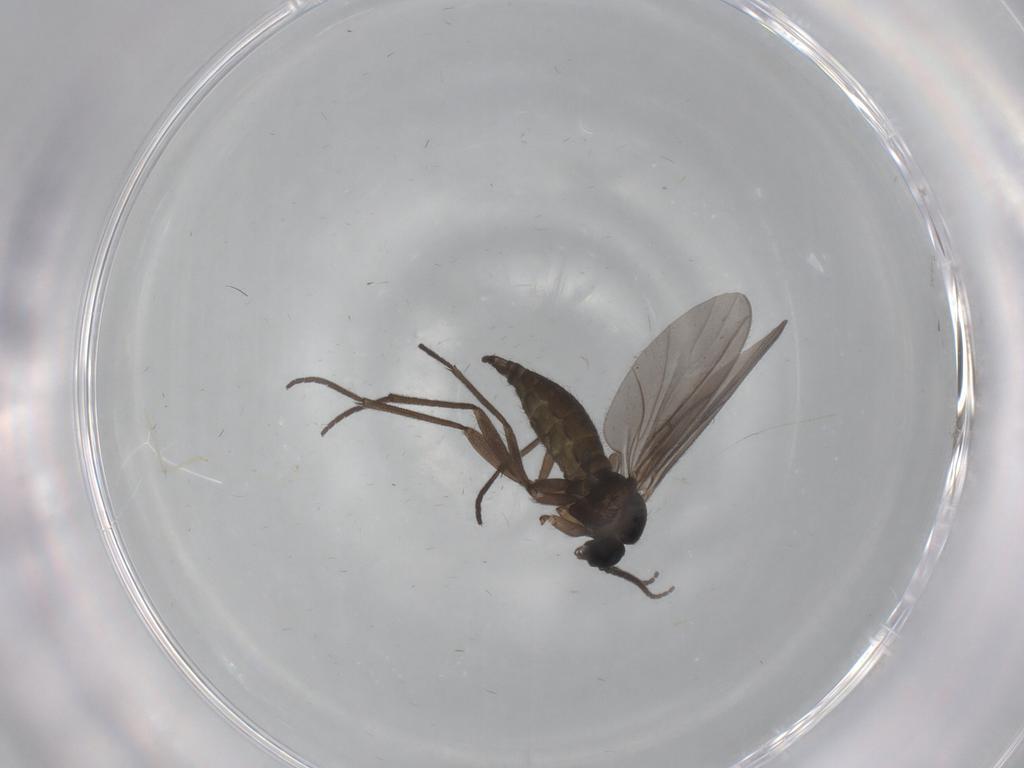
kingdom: Animalia
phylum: Arthropoda
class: Insecta
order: Diptera
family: Sciaridae
